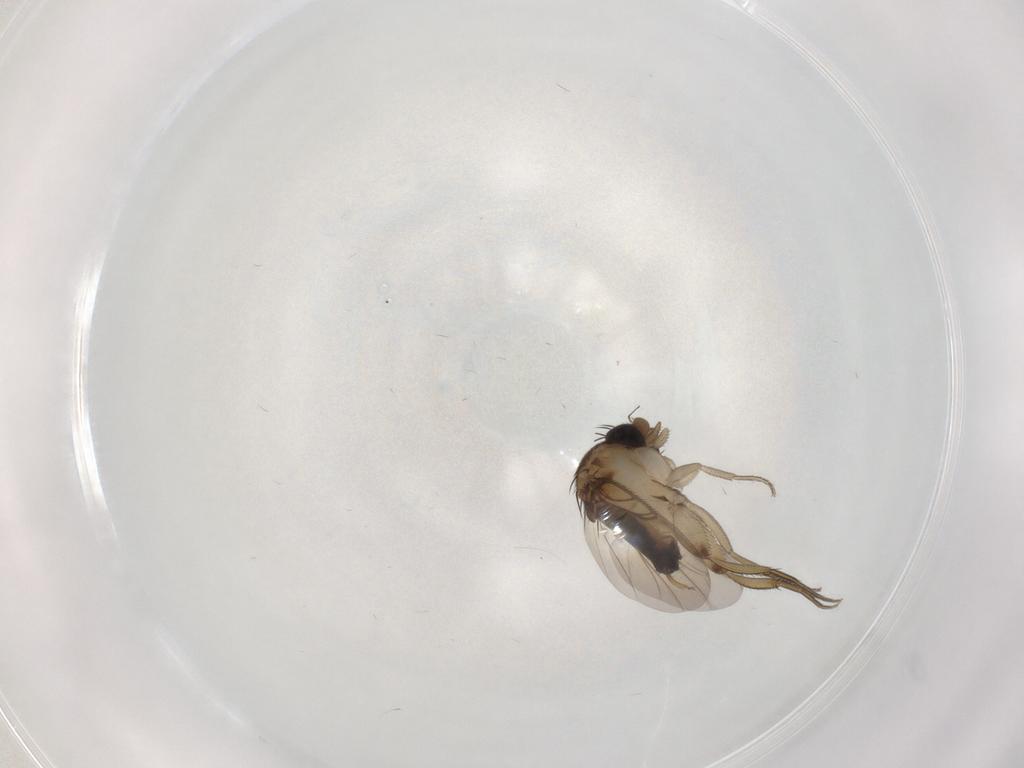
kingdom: Animalia
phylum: Arthropoda
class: Insecta
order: Diptera
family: Phoridae
